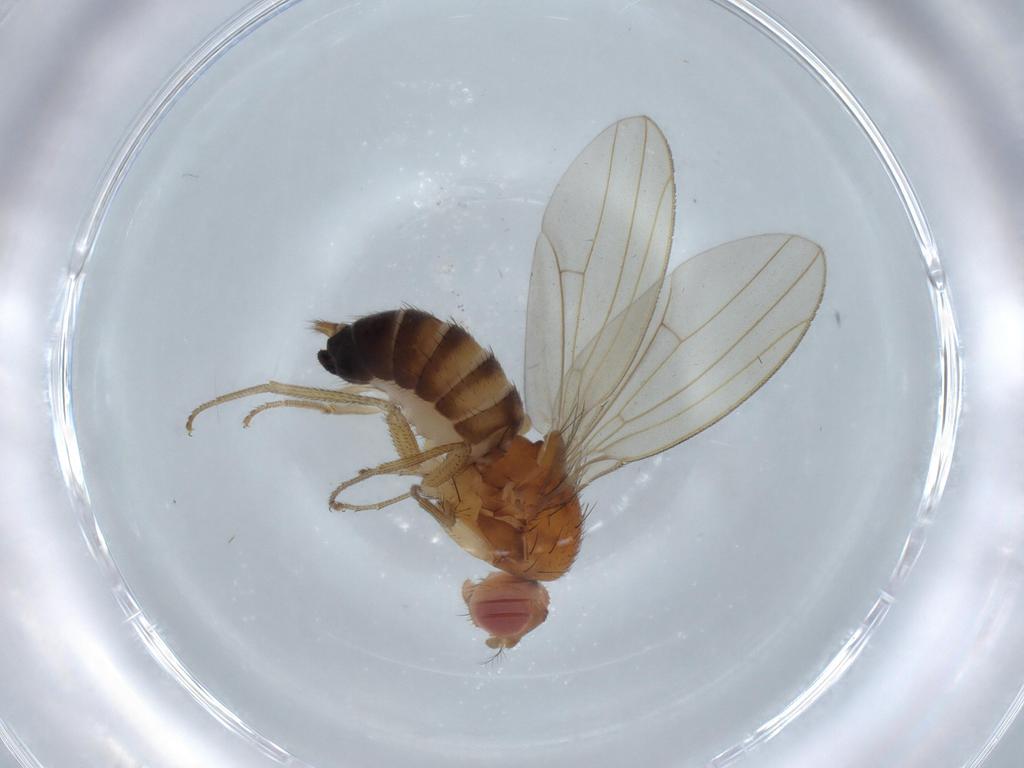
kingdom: Animalia
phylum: Arthropoda
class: Insecta
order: Diptera
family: Drosophilidae
